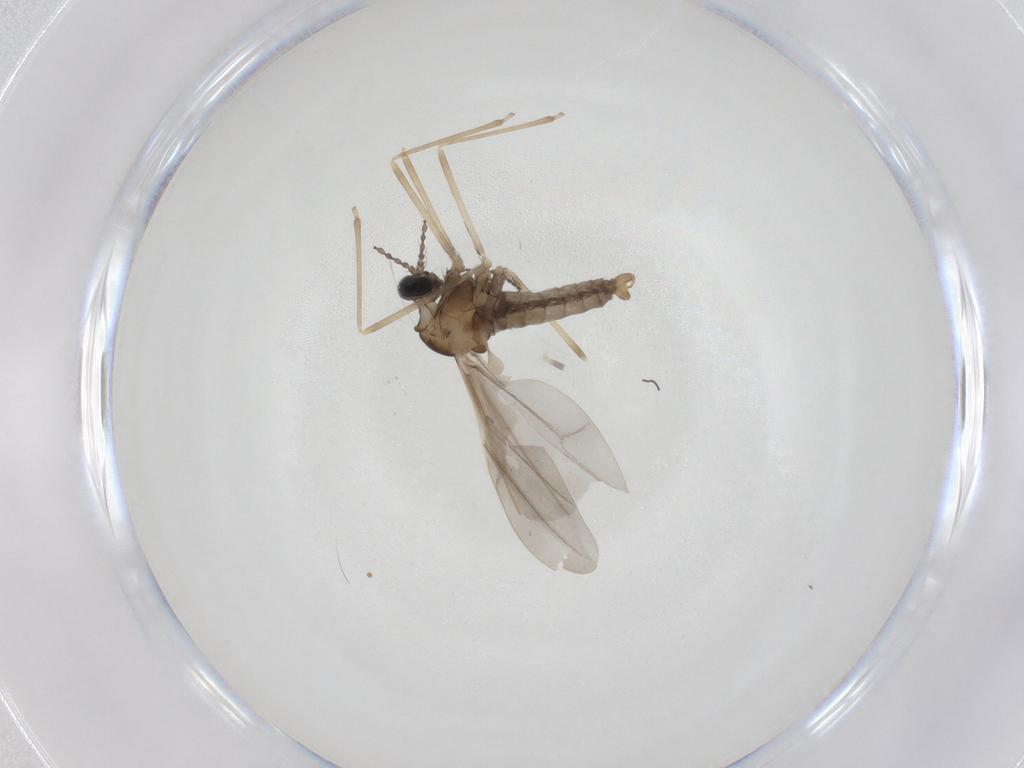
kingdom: Animalia
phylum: Arthropoda
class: Insecta
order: Diptera
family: Cecidomyiidae
